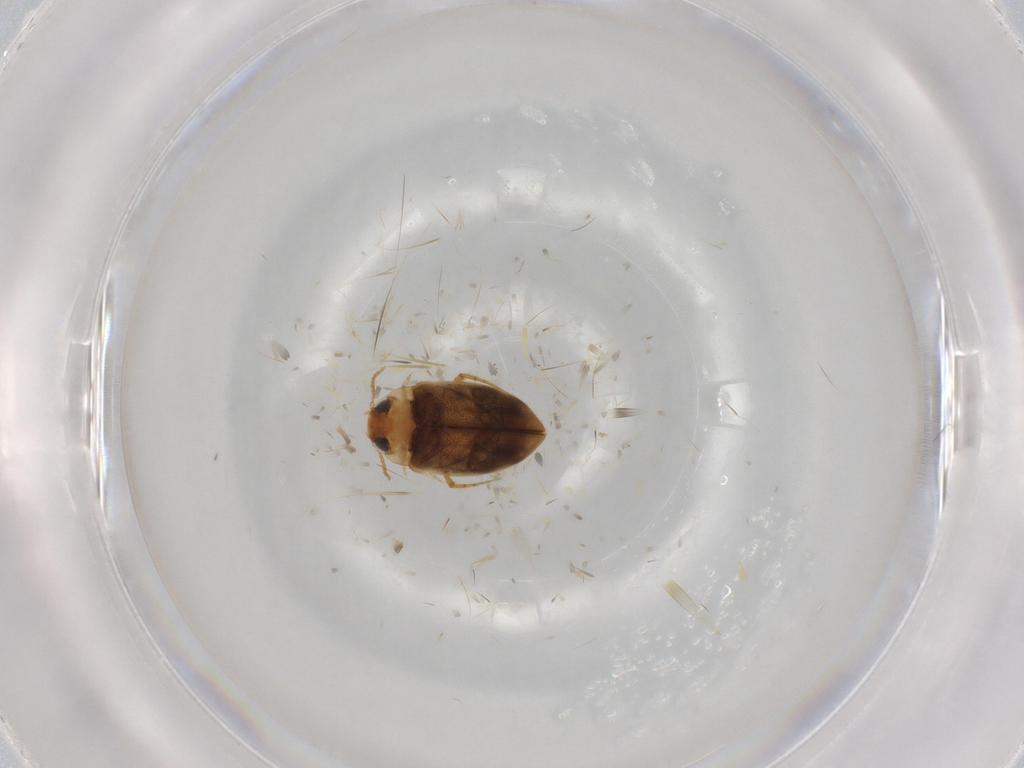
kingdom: Animalia
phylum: Arthropoda
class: Insecta
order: Coleoptera
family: Dytiscidae
